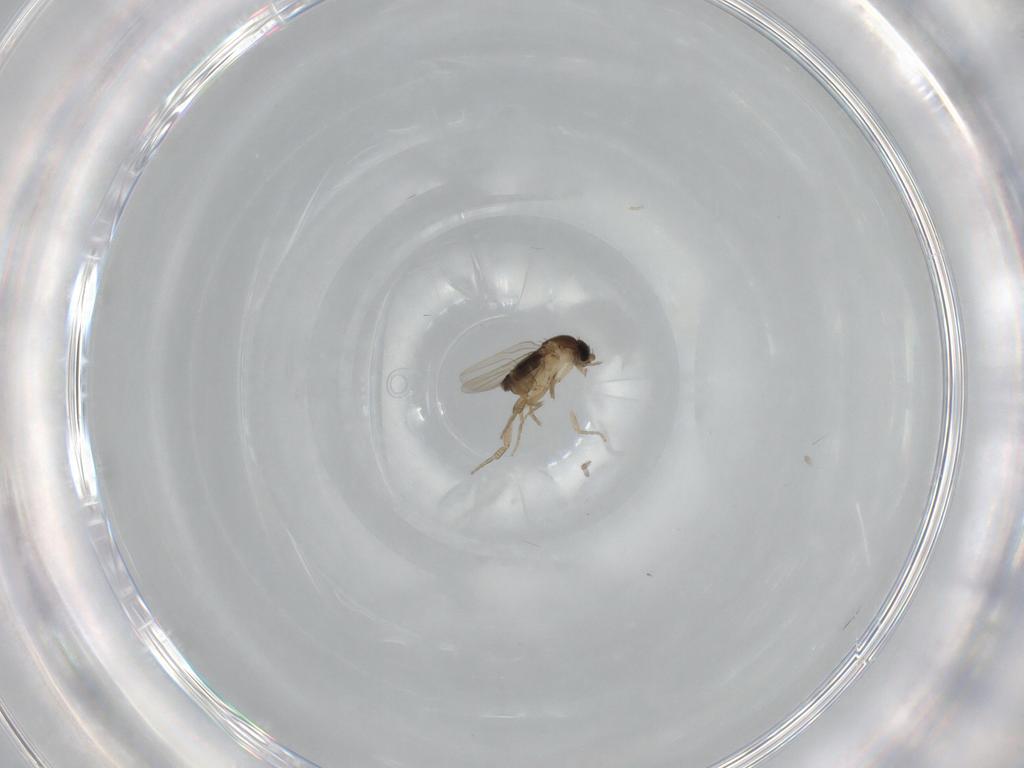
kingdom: Animalia
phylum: Arthropoda
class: Insecta
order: Diptera
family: Phoridae
